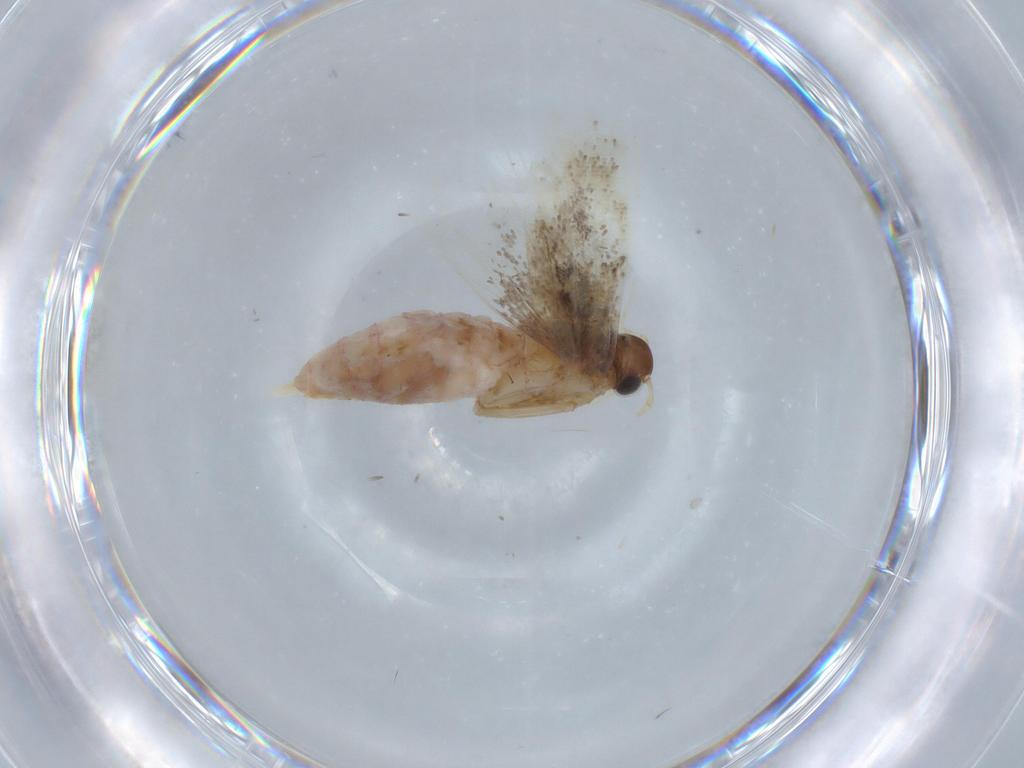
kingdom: Animalia
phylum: Arthropoda
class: Insecta
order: Lepidoptera
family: Gelechiidae
